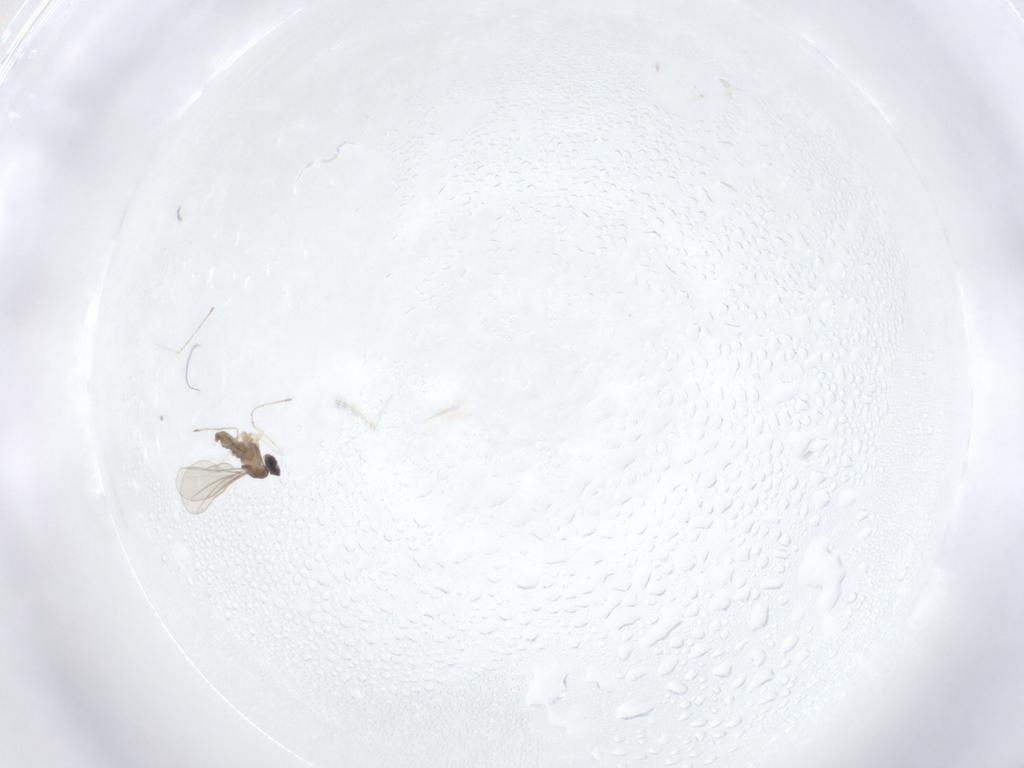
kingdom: Animalia
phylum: Arthropoda
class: Insecta
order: Diptera
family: Cecidomyiidae
